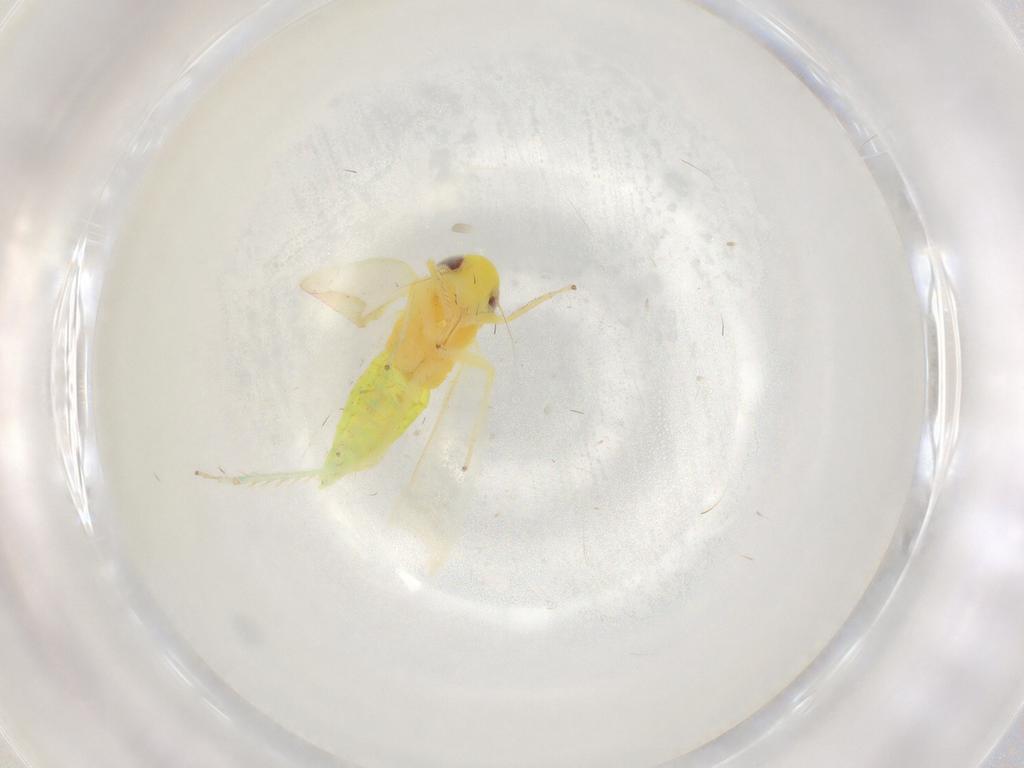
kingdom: Animalia
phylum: Arthropoda
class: Insecta
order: Hemiptera
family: Cicadellidae
